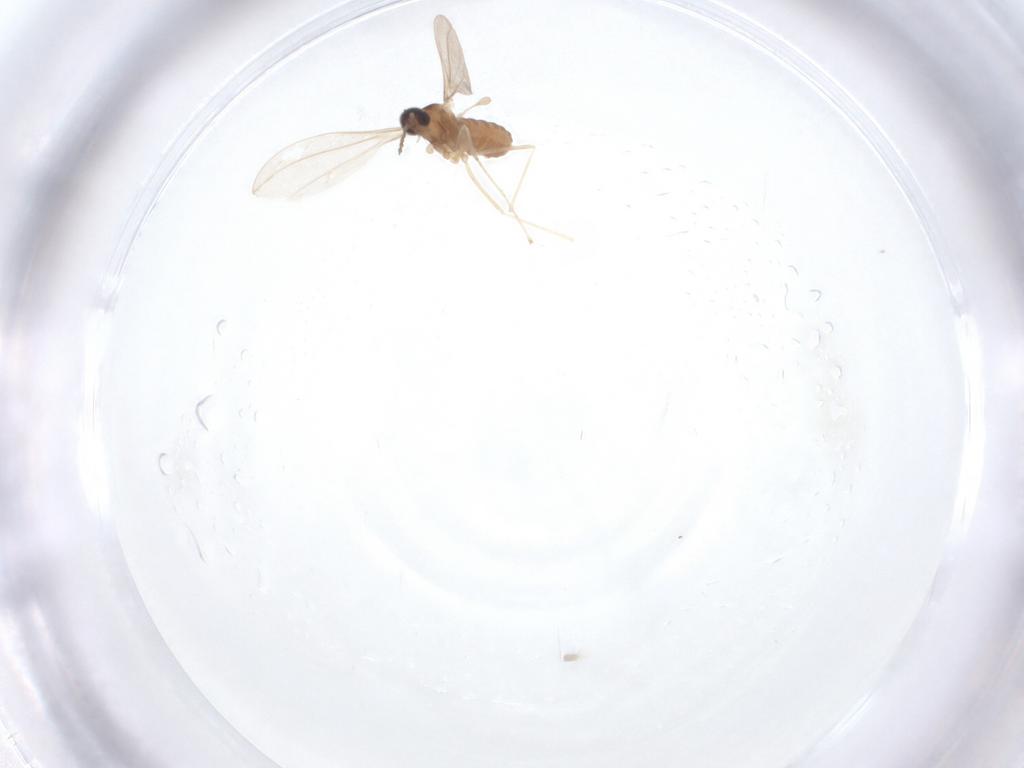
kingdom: Animalia
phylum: Arthropoda
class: Insecta
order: Diptera
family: Cecidomyiidae
